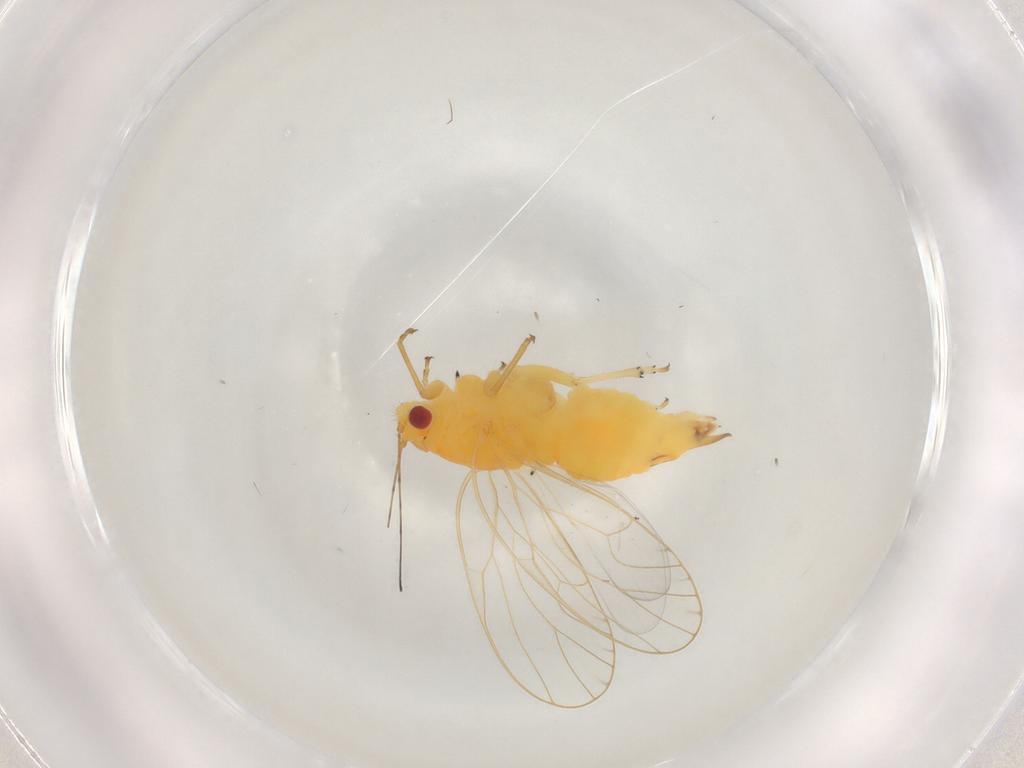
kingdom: Animalia
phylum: Arthropoda
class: Insecta
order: Hemiptera
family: Psyllidae
